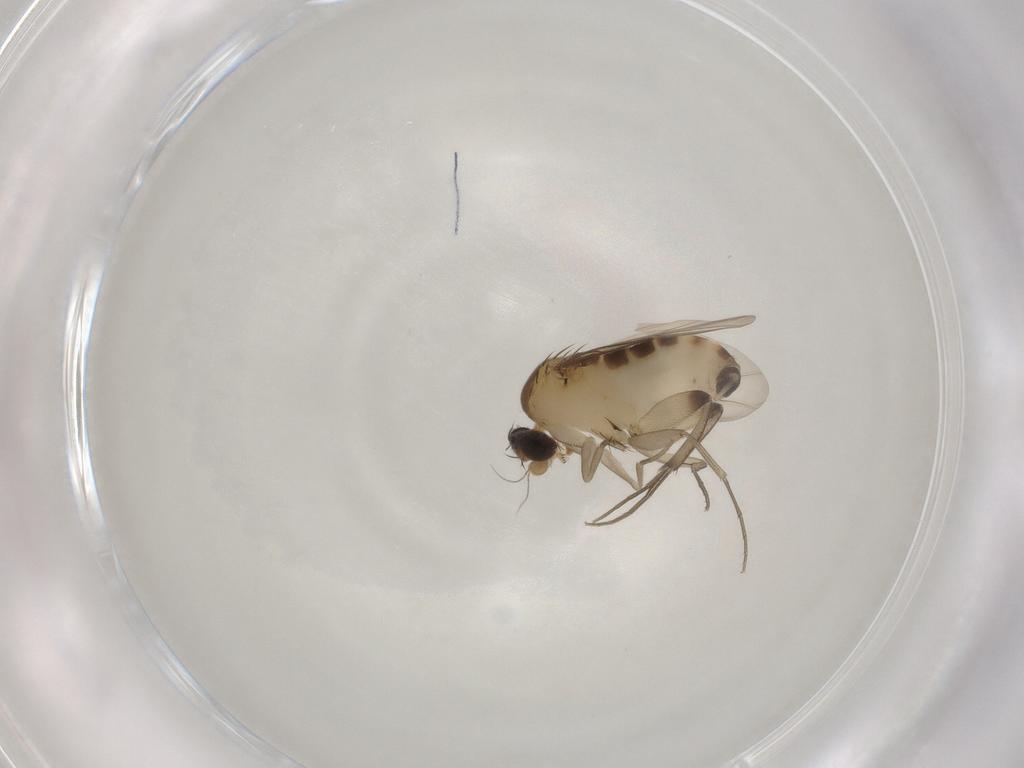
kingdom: Animalia
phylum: Arthropoda
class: Insecta
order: Diptera
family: Phoridae
